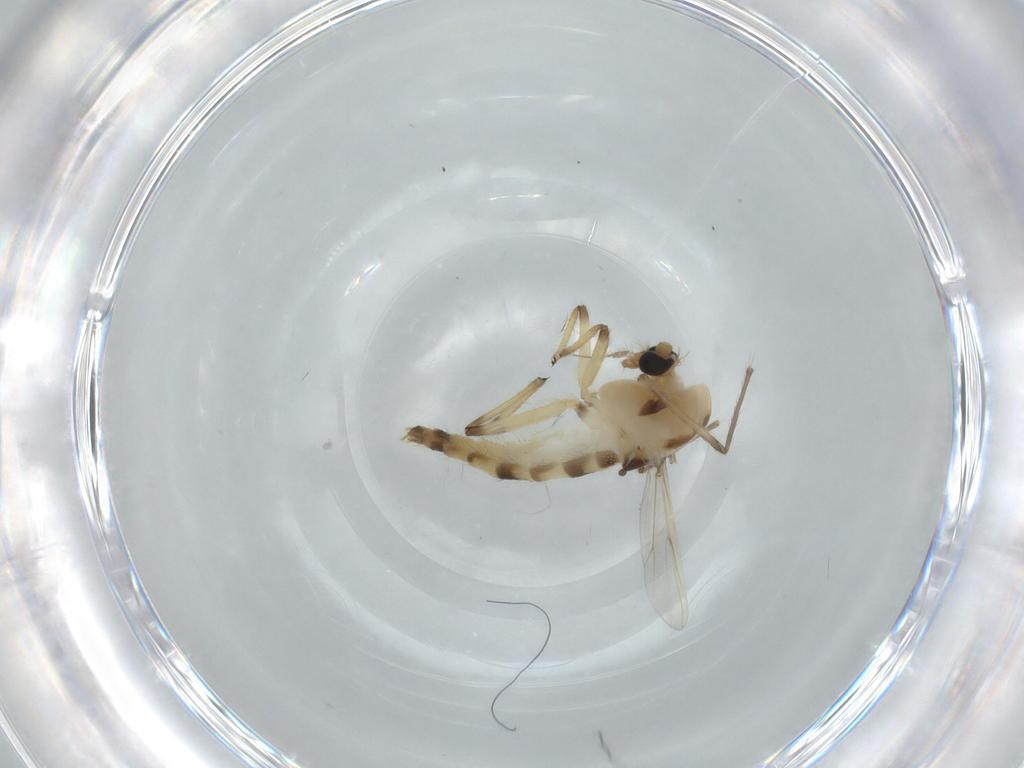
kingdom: Animalia
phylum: Arthropoda
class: Insecta
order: Diptera
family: Chironomidae
